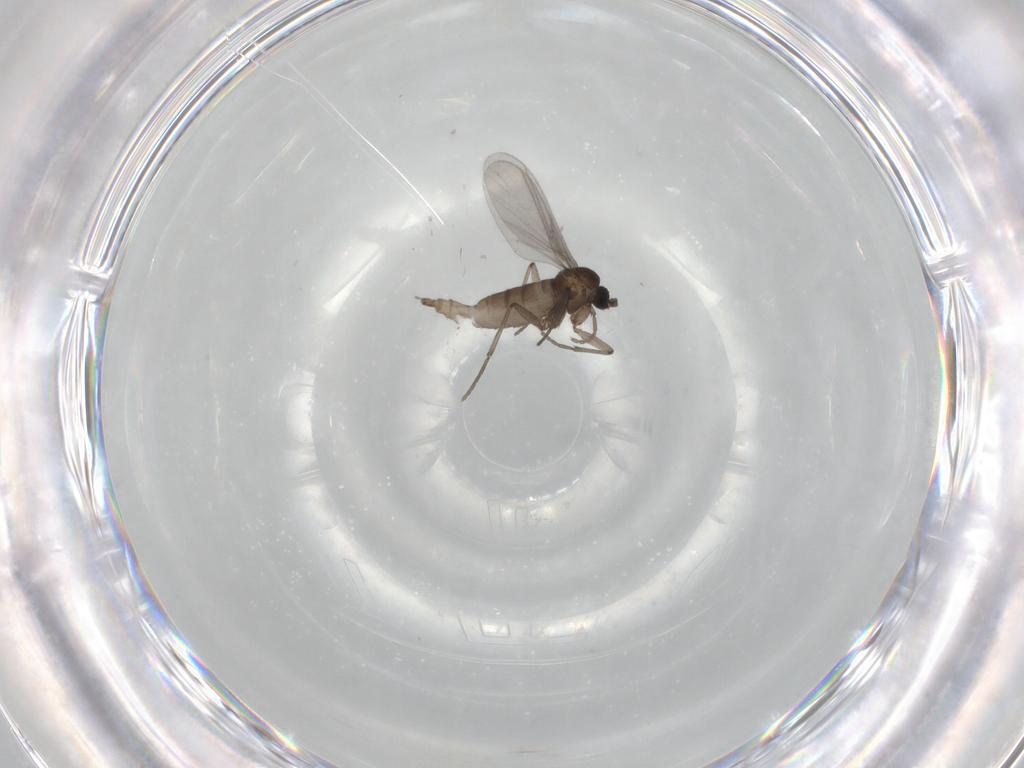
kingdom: Animalia
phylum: Arthropoda
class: Insecta
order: Diptera
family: Sciaridae
